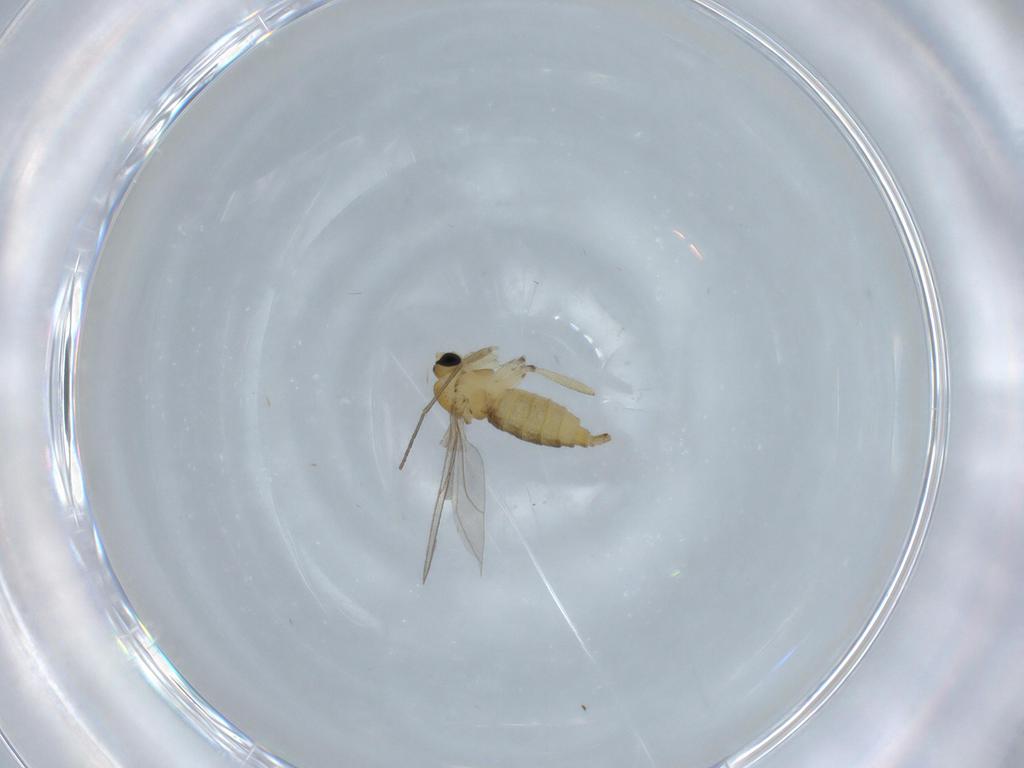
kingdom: Animalia
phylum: Arthropoda
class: Insecta
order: Diptera
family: Sciaridae
